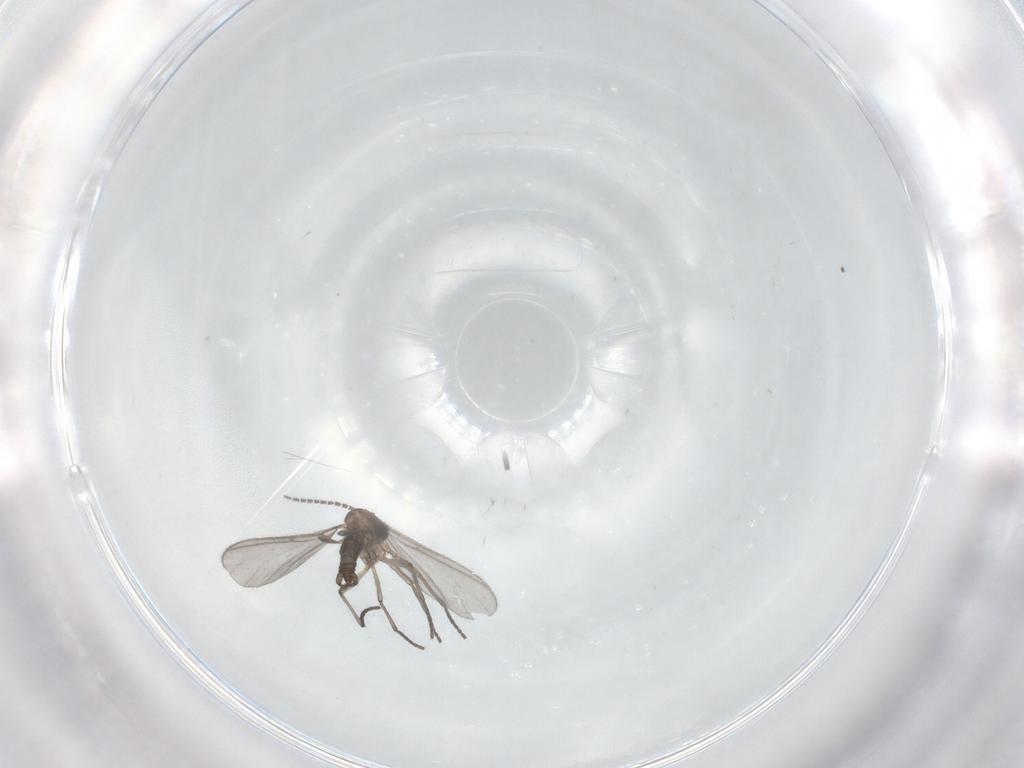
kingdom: Animalia
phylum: Arthropoda
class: Insecta
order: Diptera
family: Sciaridae
